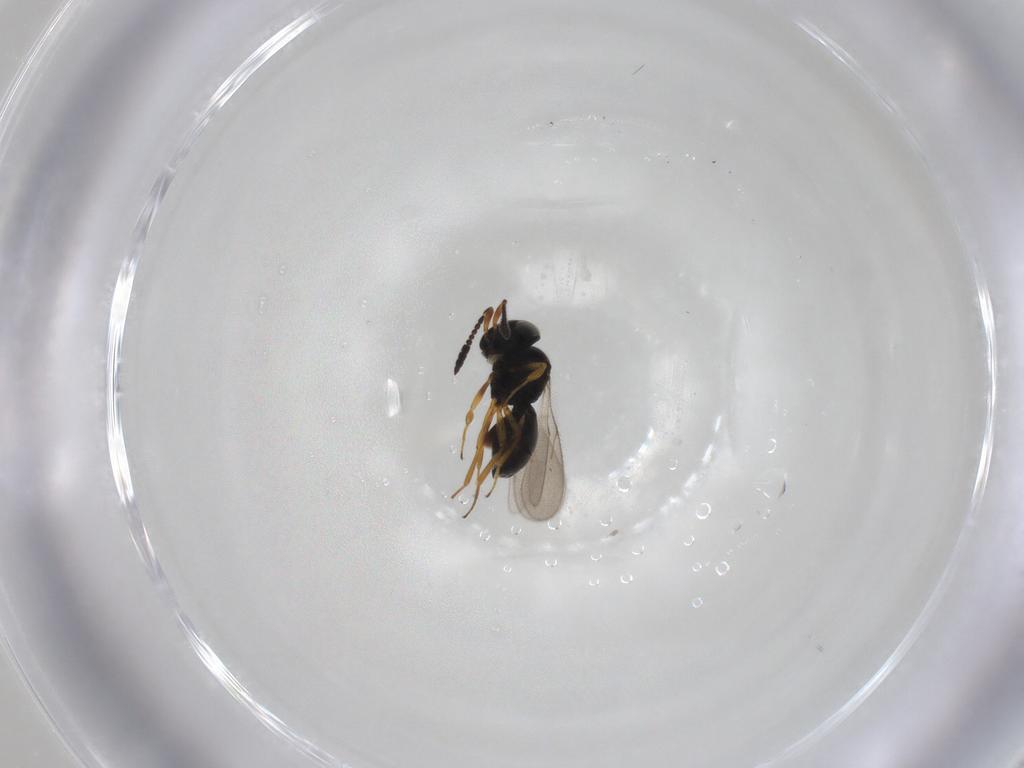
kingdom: Animalia
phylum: Arthropoda
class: Insecta
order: Hymenoptera
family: Scelionidae
